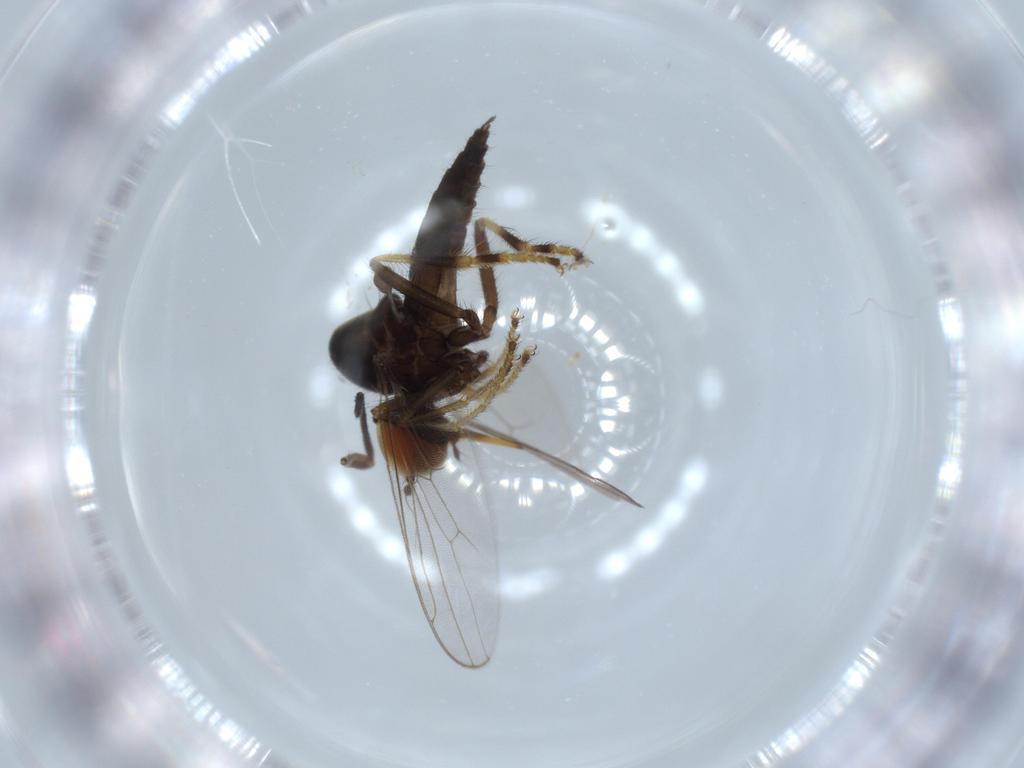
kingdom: Animalia
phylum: Arthropoda
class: Insecta
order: Diptera
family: Hybotidae
